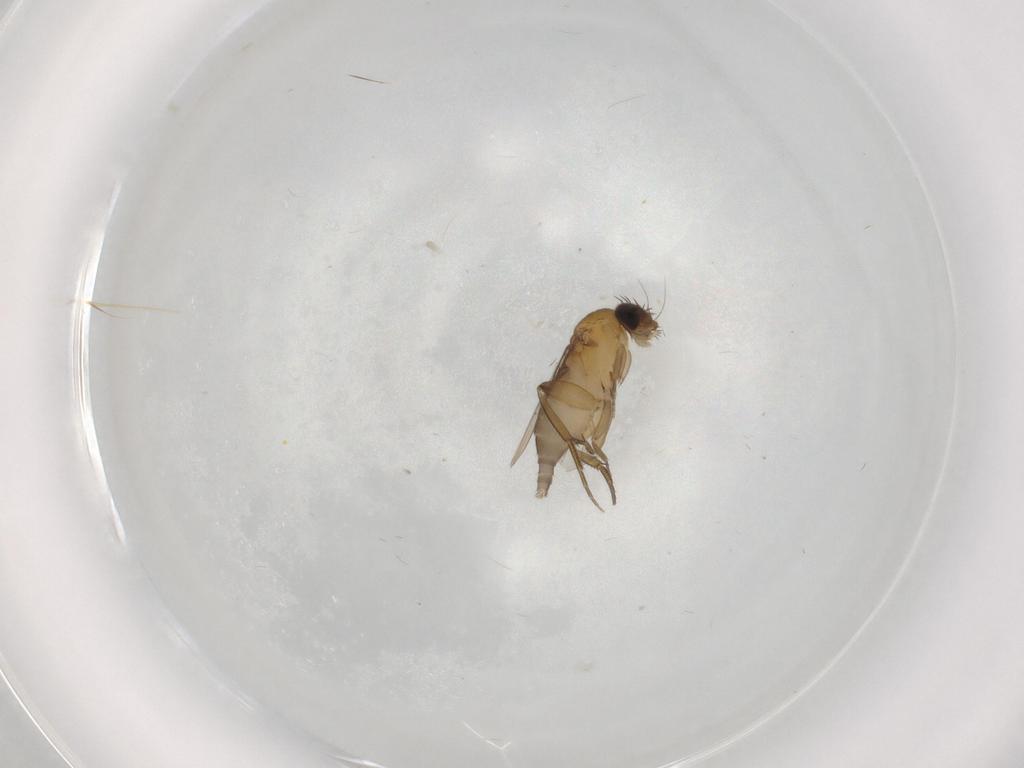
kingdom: Animalia
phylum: Arthropoda
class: Insecta
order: Diptera
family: Phoridae
